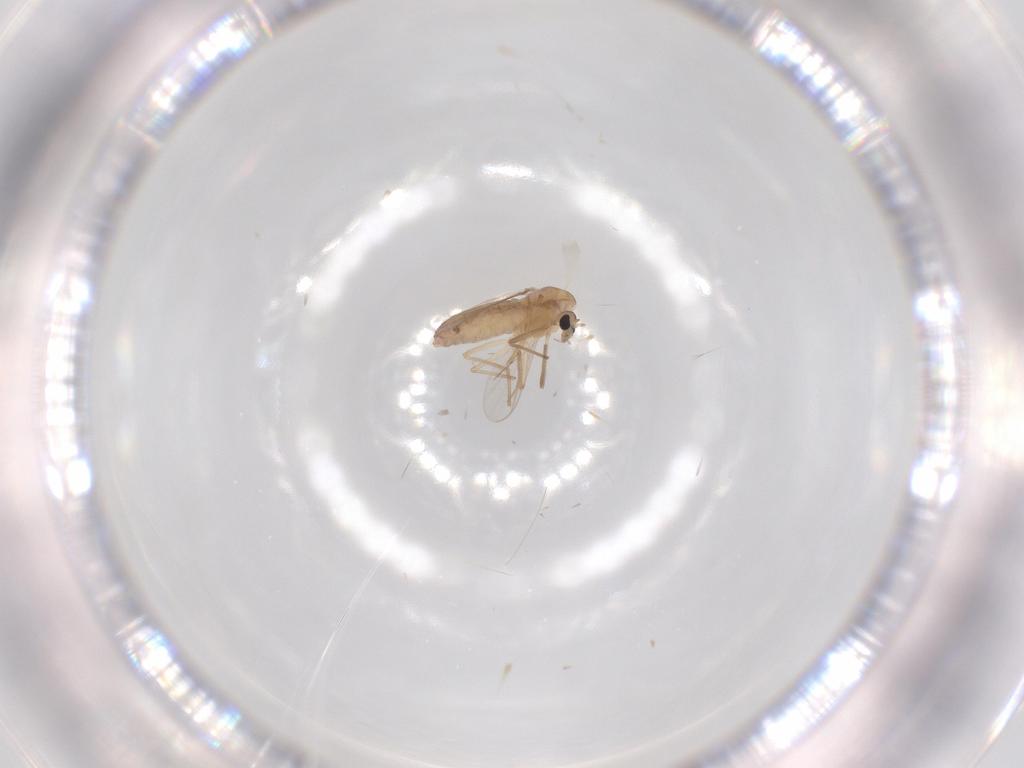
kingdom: Animalia
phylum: Arthropoda
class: Insecta
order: Diptera
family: Chironomidae
